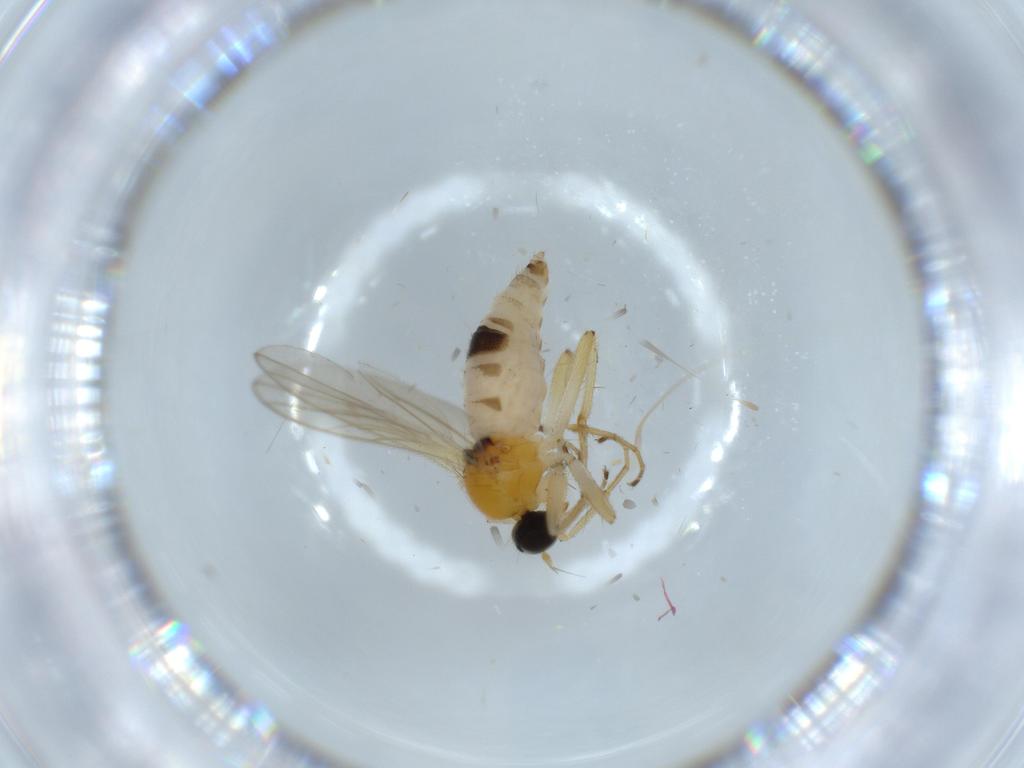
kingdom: Animalia
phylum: Arthropoda
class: Insecta
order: Diptera
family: Hybotidae
